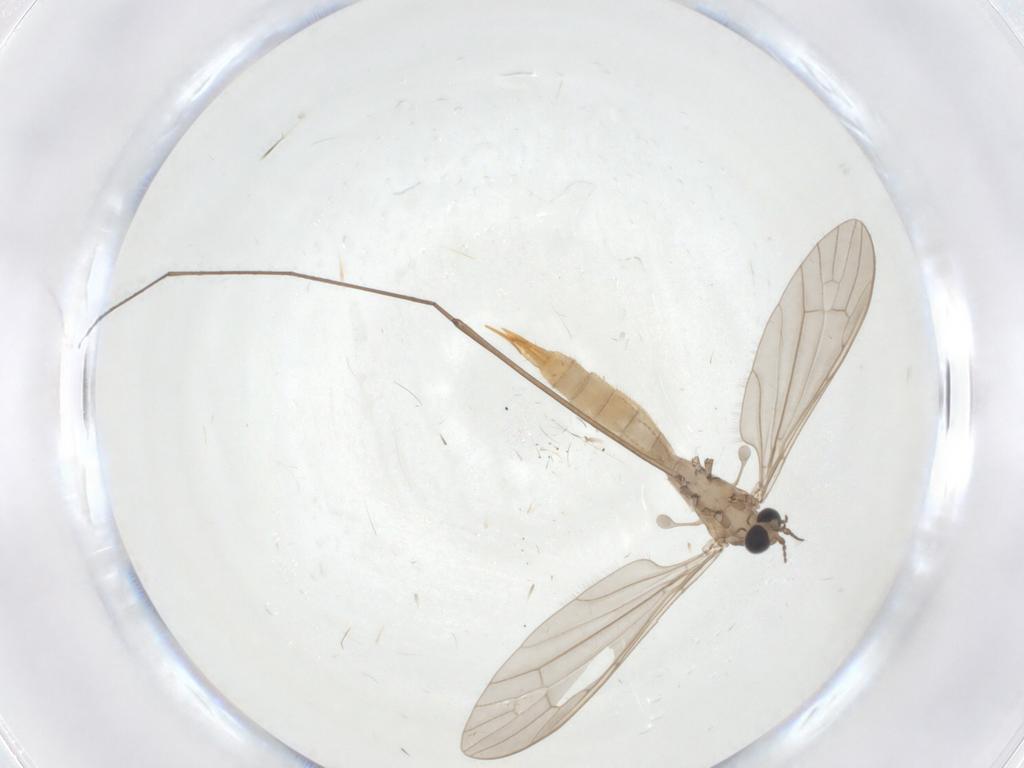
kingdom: Animalia
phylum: Arthropoda
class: Insecta
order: Diptera
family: Limoniidae
